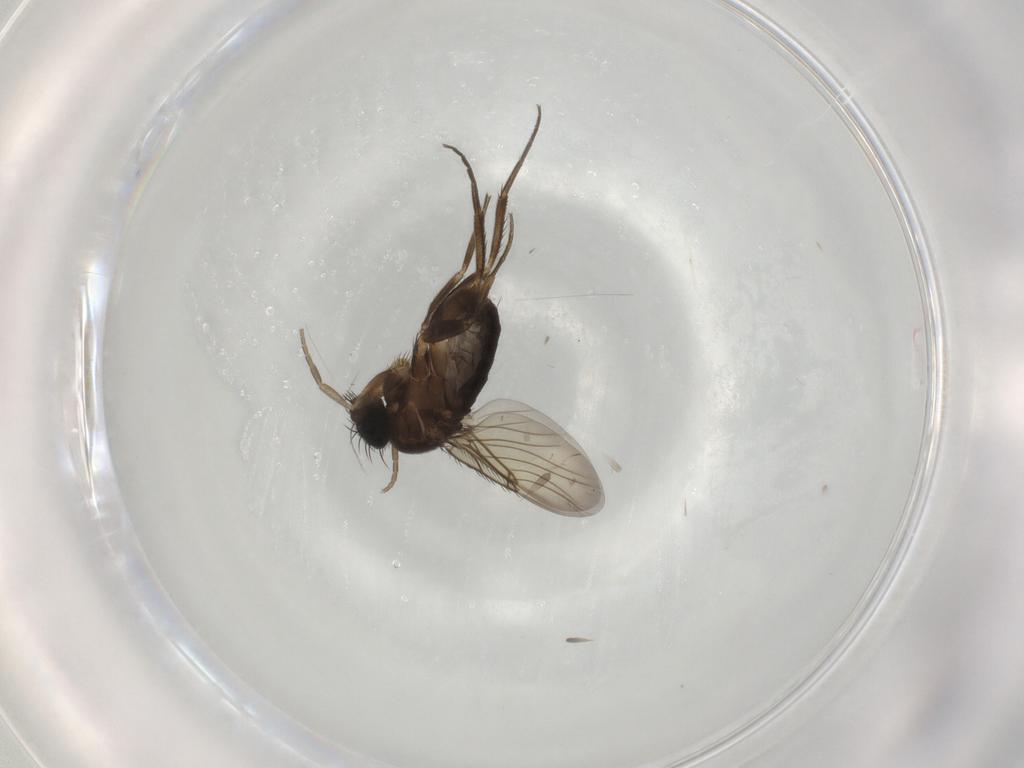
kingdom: Animalia
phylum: Arthropoda
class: Insecta
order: Diptera
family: Phoridae
